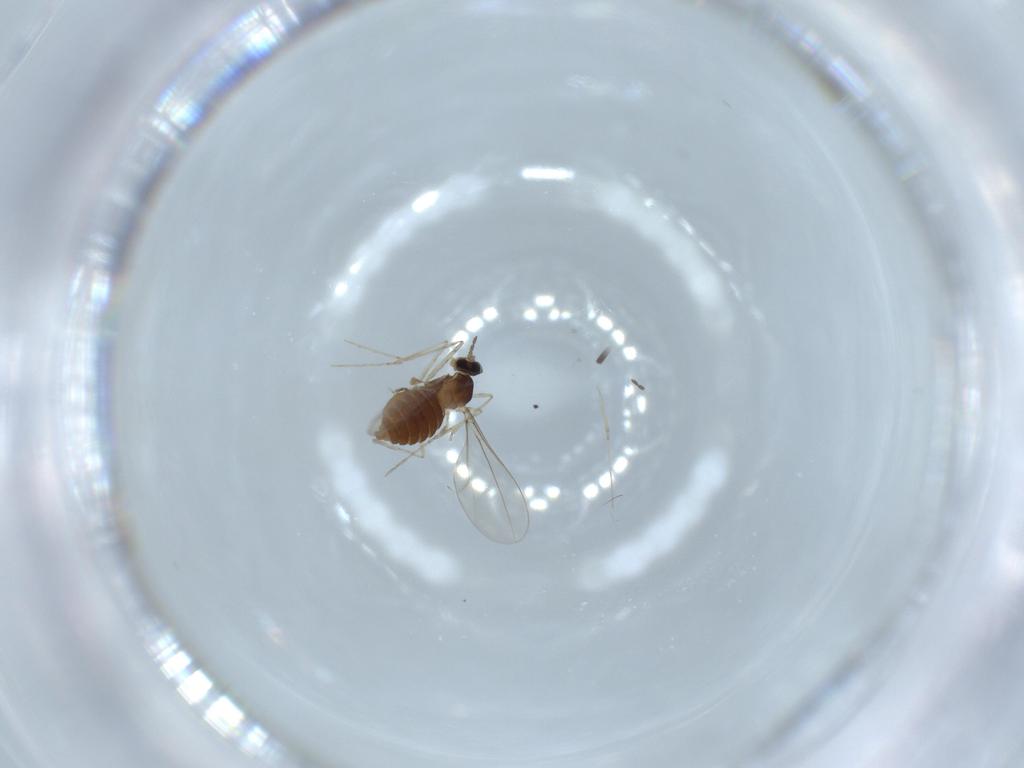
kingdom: Animalia
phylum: Arthropoda
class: Insecta
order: Diptera
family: Cecidomyiidae
